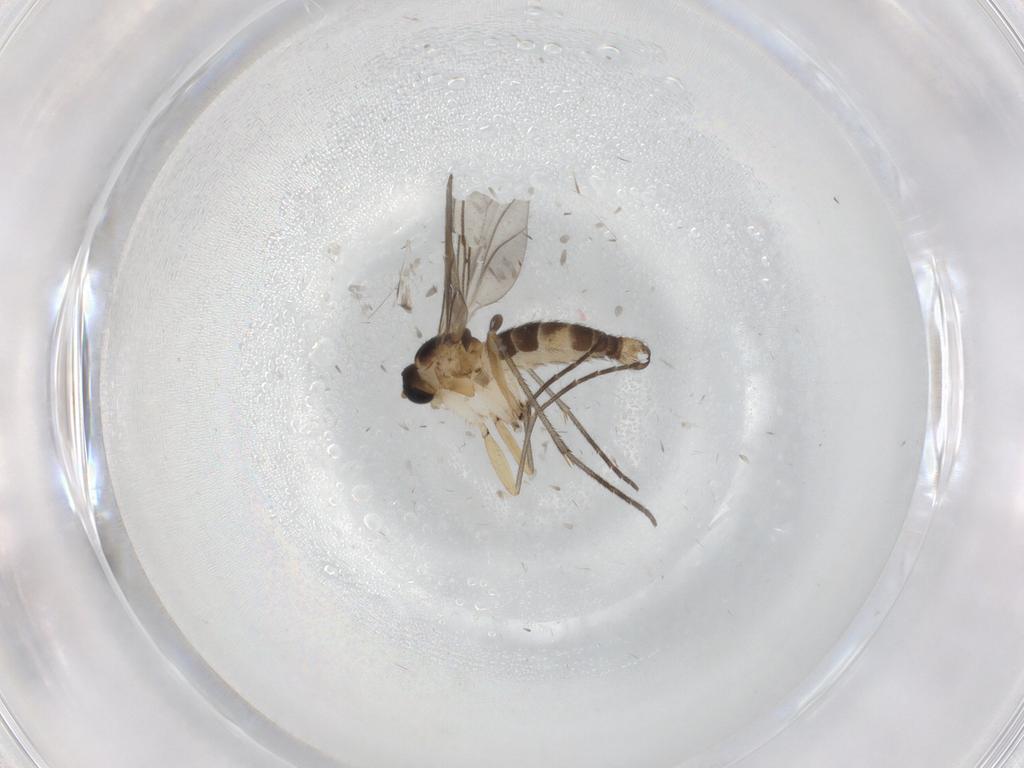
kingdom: Animalia
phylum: Arthropoda
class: Insecta
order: Diptera
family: Sciaridae
